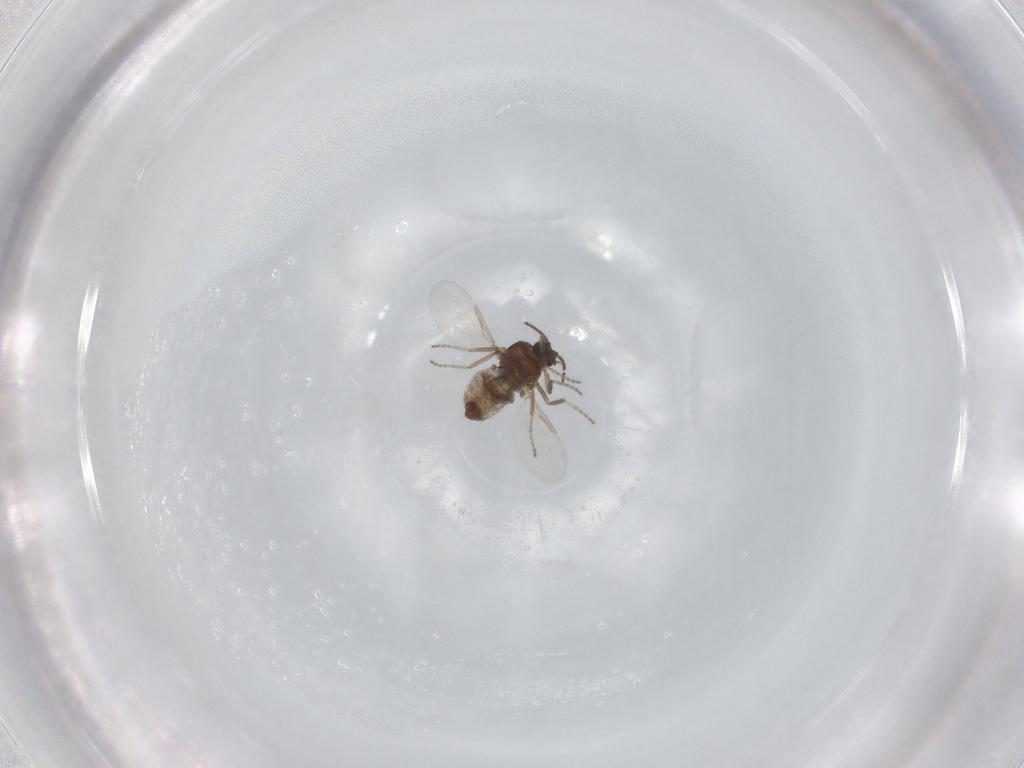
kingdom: Animalia
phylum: Arthropoda
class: Insecta
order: Diptera
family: Ceratopogonidae
